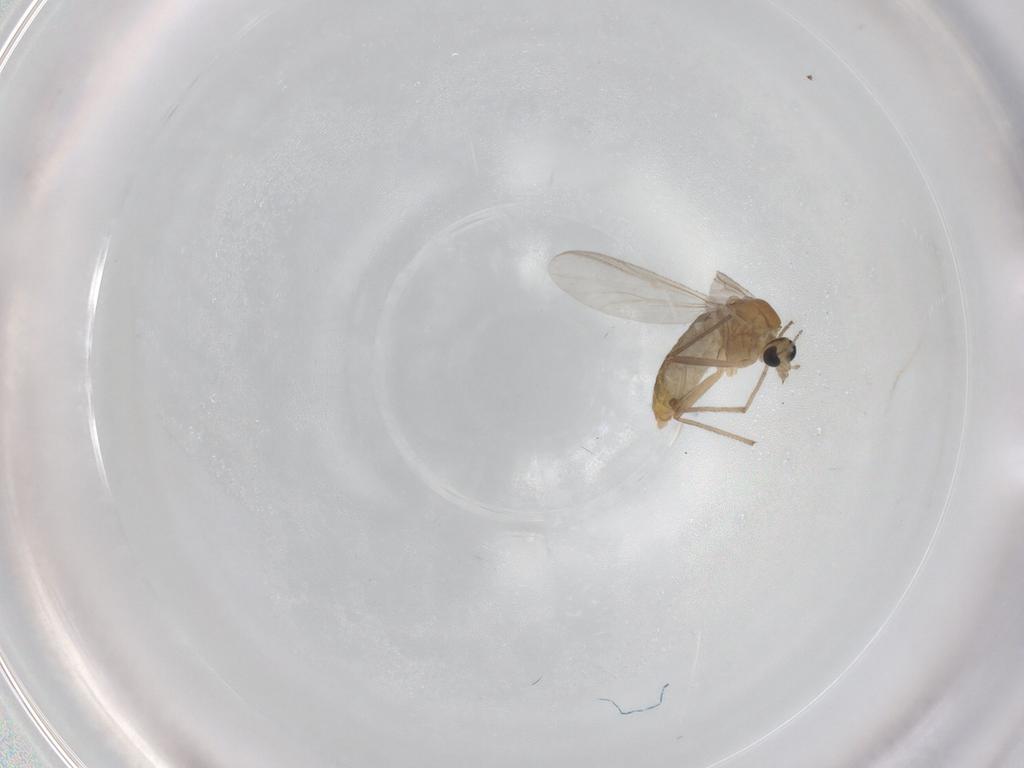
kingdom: Animalia
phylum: Arthropoda
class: Insecta
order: Diptera
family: Chironomidae
